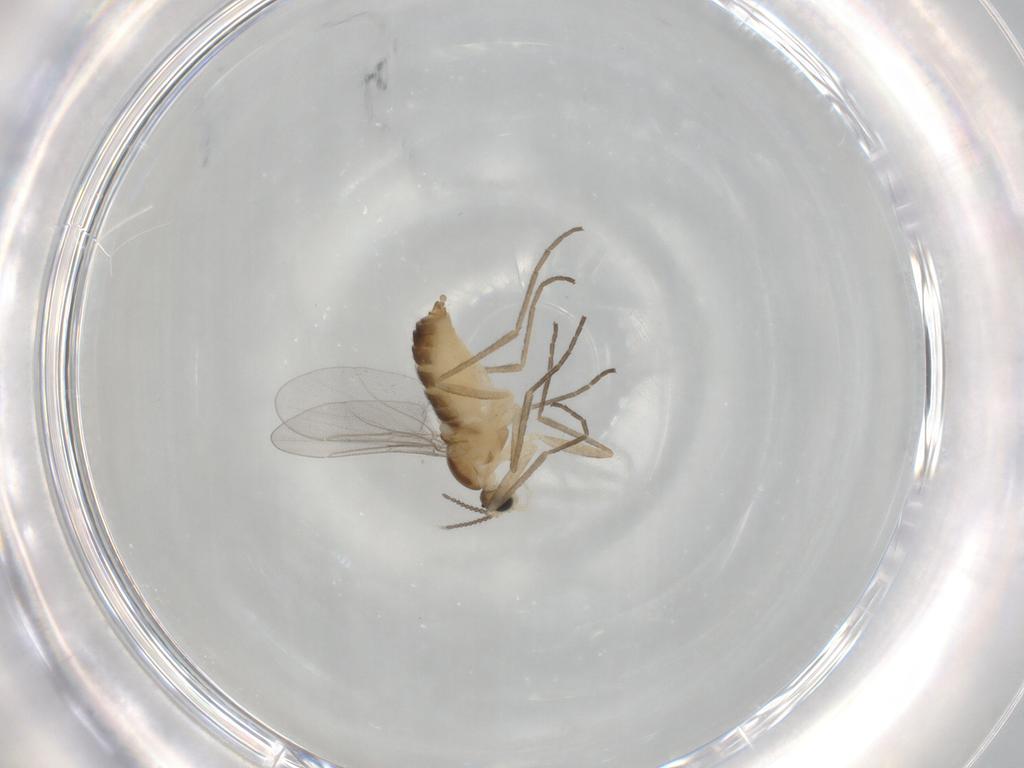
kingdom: Animalia
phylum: Arthropoda
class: Insecta
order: Diptera
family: Cecidomyiidae
